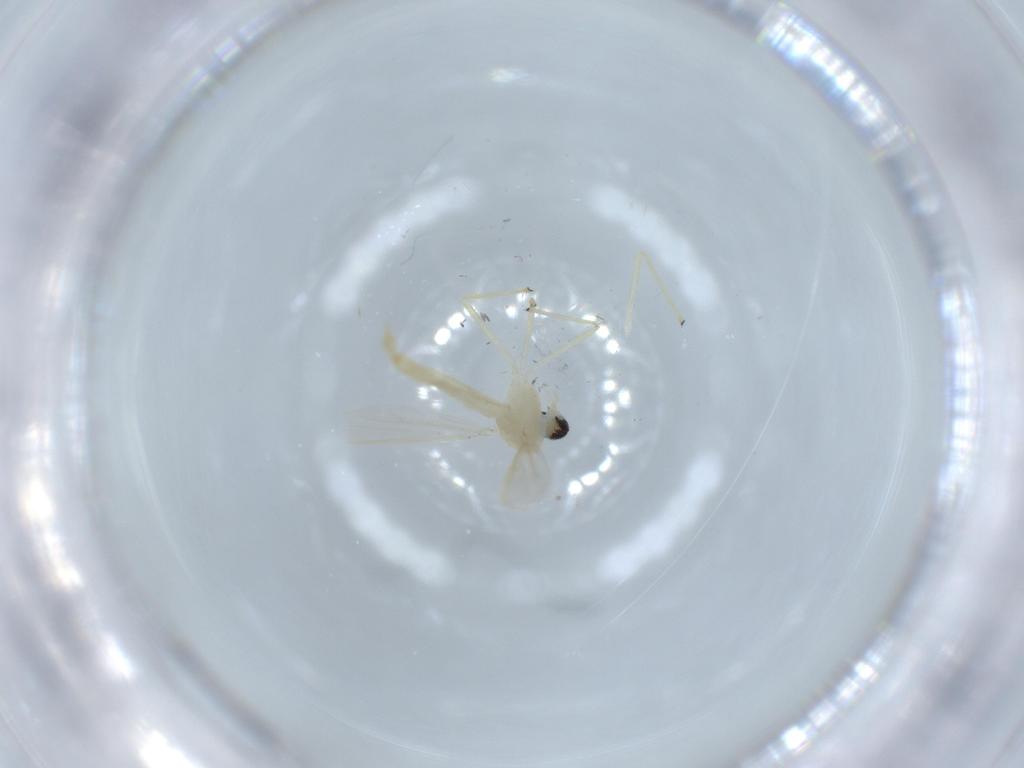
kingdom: Animalia
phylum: Arthropoda
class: Insecta
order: Diptera
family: Chironomidae
